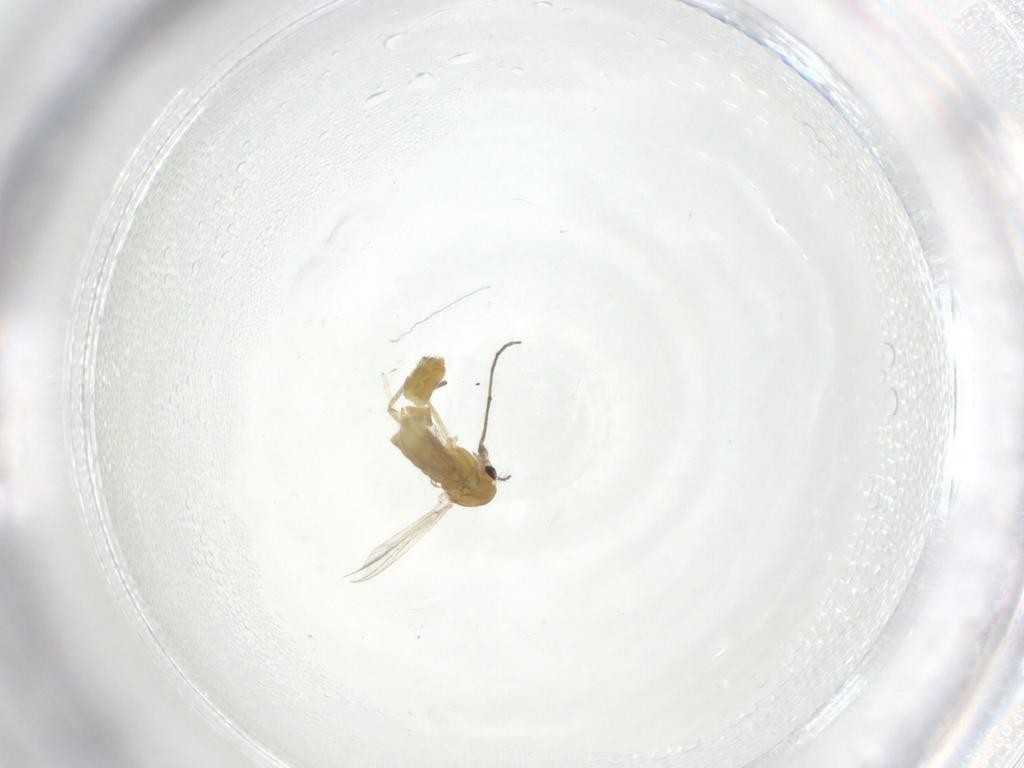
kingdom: Animalia
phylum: Arthropoda
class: Insecta
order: Diptera
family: Chironomidae
